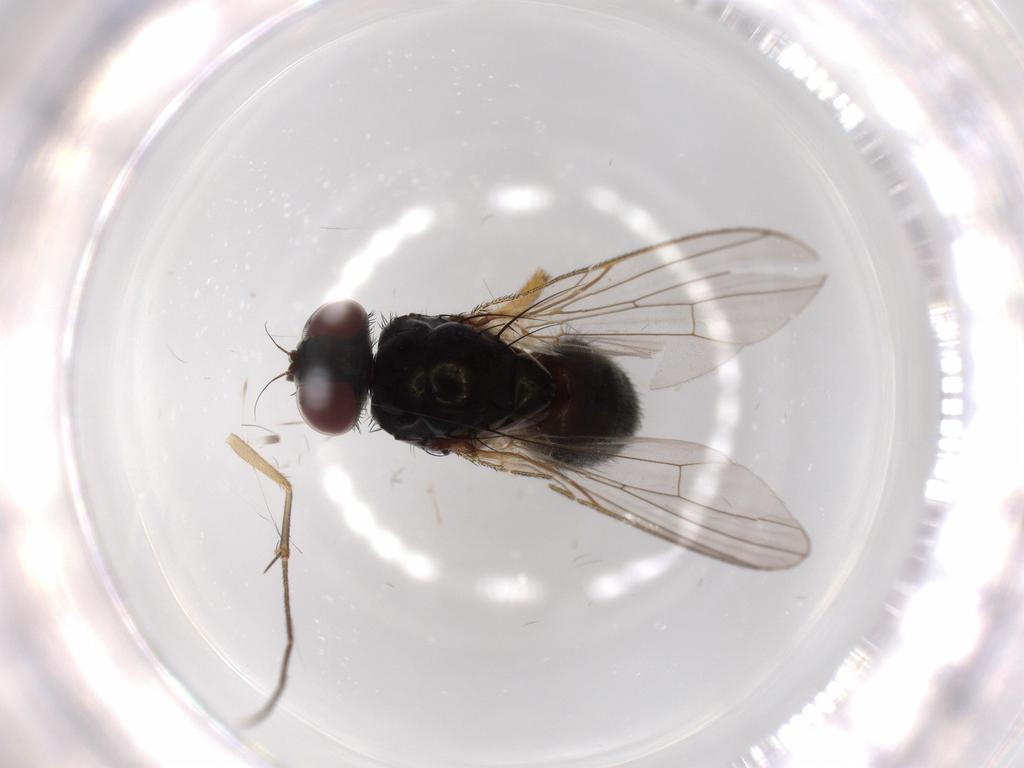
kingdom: Animalia
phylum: Arthropoda
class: Insecta
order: Diptera
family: Muscidae
